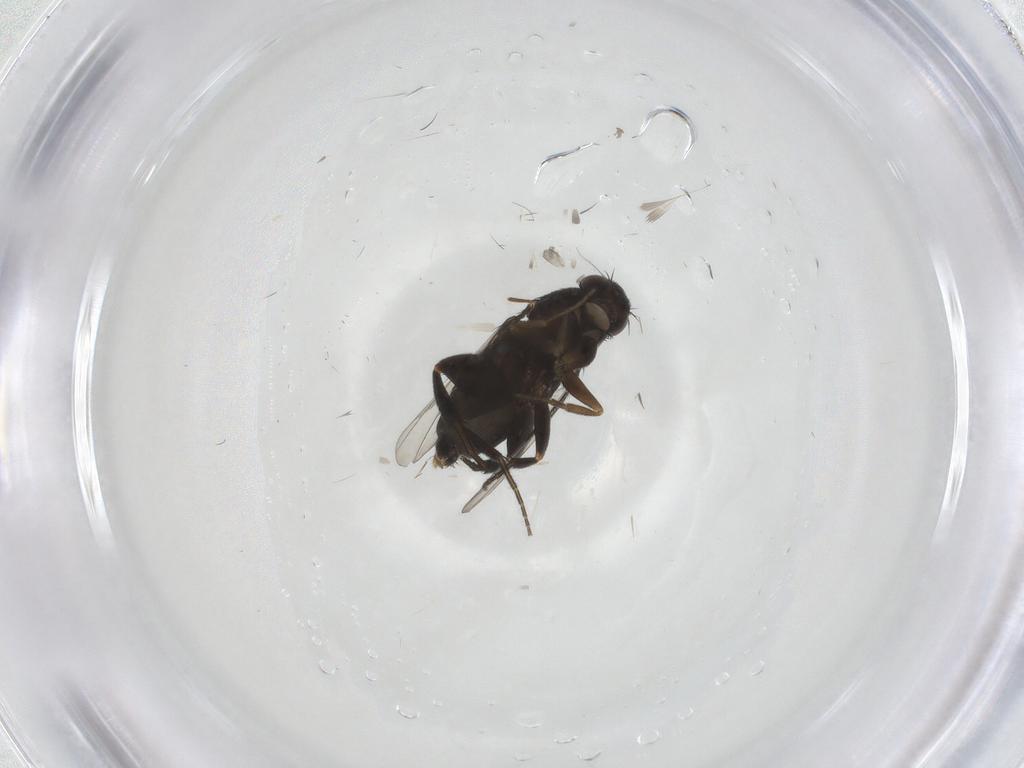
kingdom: Animalia
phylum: Arthropoda
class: Insecta
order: Diptera
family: Phoridae
